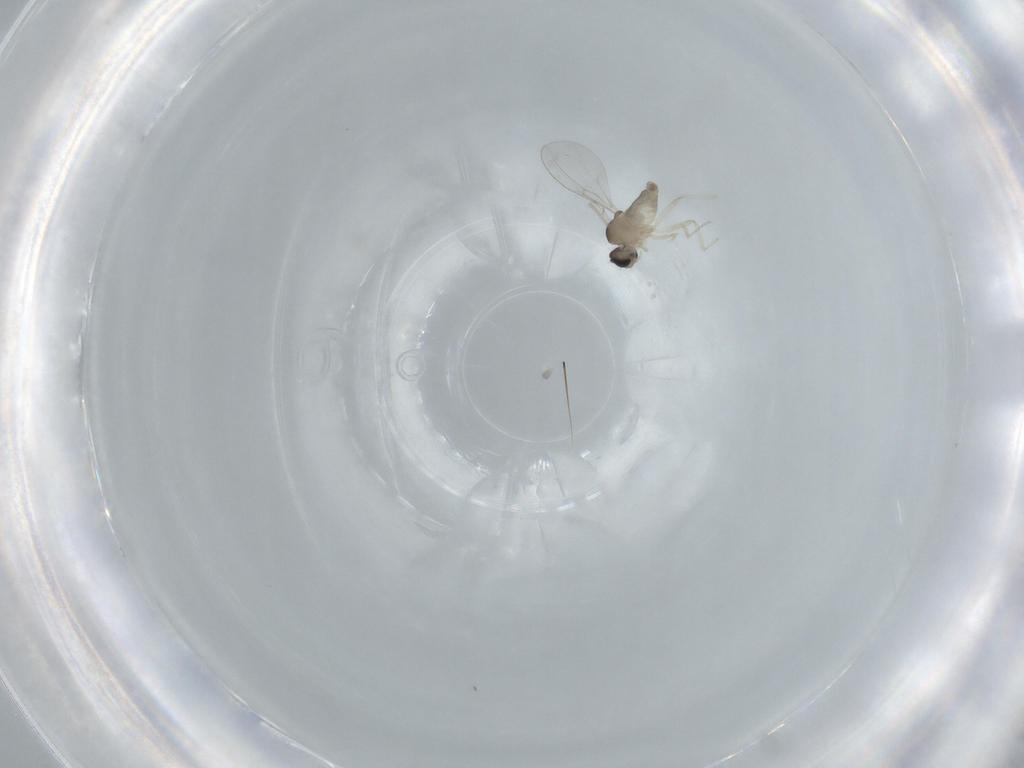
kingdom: Animalia
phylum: Arthropoda
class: Insecta
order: Diptera
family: Cecidomyiidae
